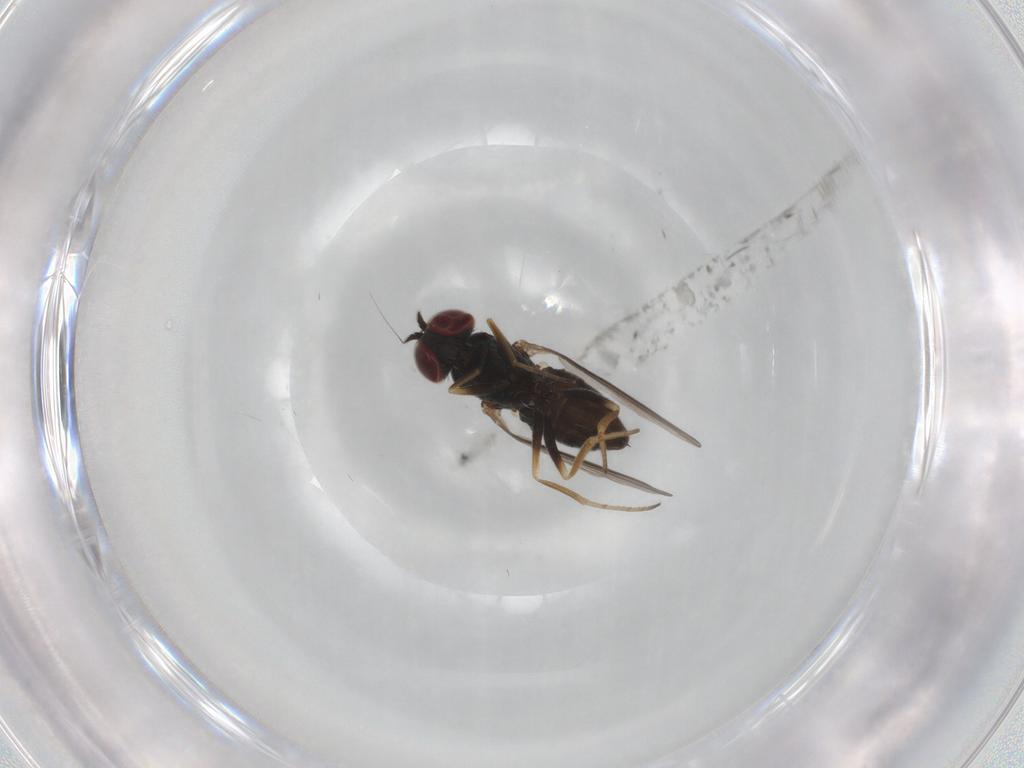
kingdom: Animalia
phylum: Arthropoda
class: Insecta
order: Diptera
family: Dolichopodidae
